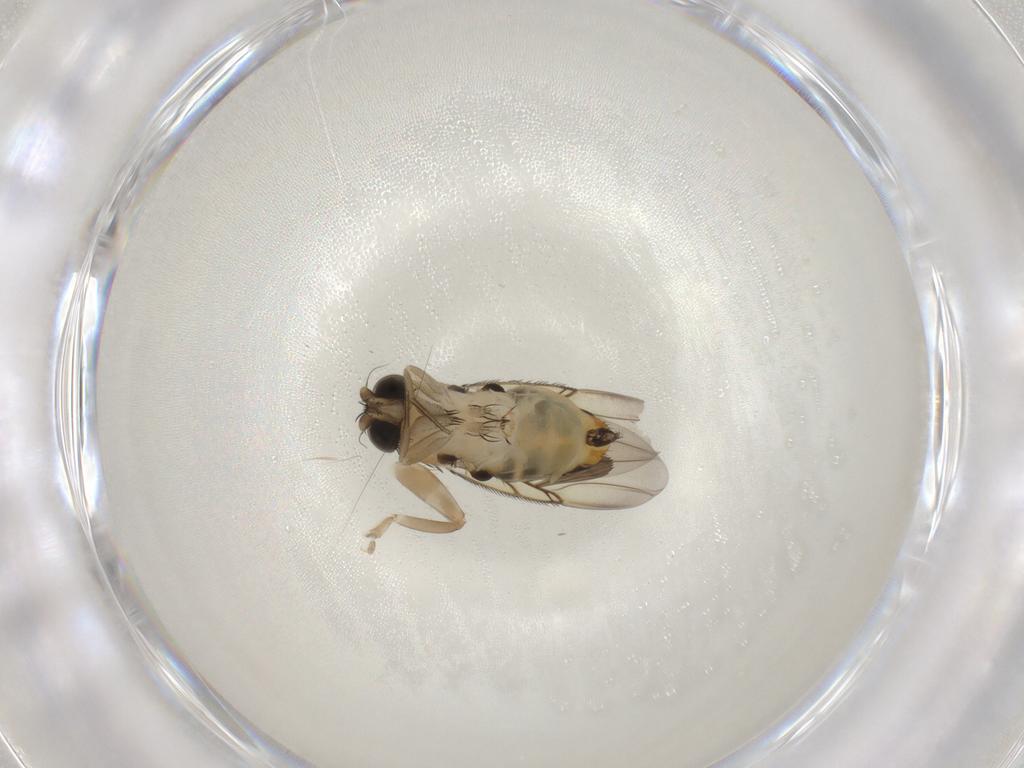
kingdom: Animalia
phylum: Arthropoda
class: Insecta
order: Diptera
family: Phoridae
